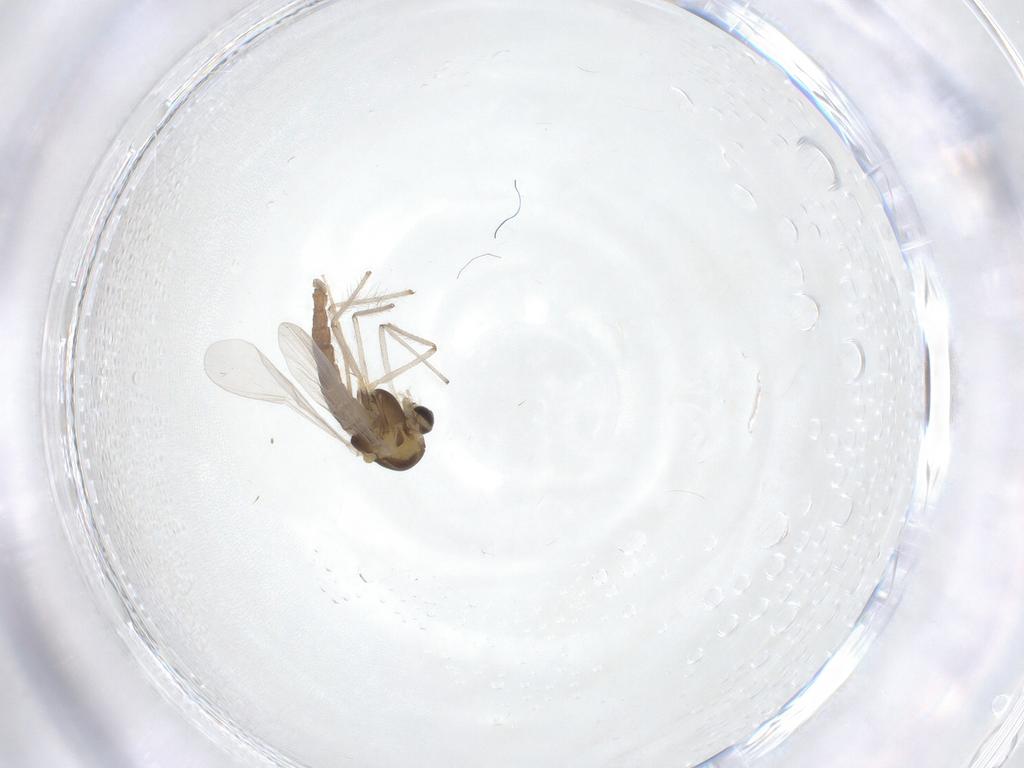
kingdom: Animalia
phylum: Arthropoda
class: Insecta
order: Diptera
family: Chironomidae
